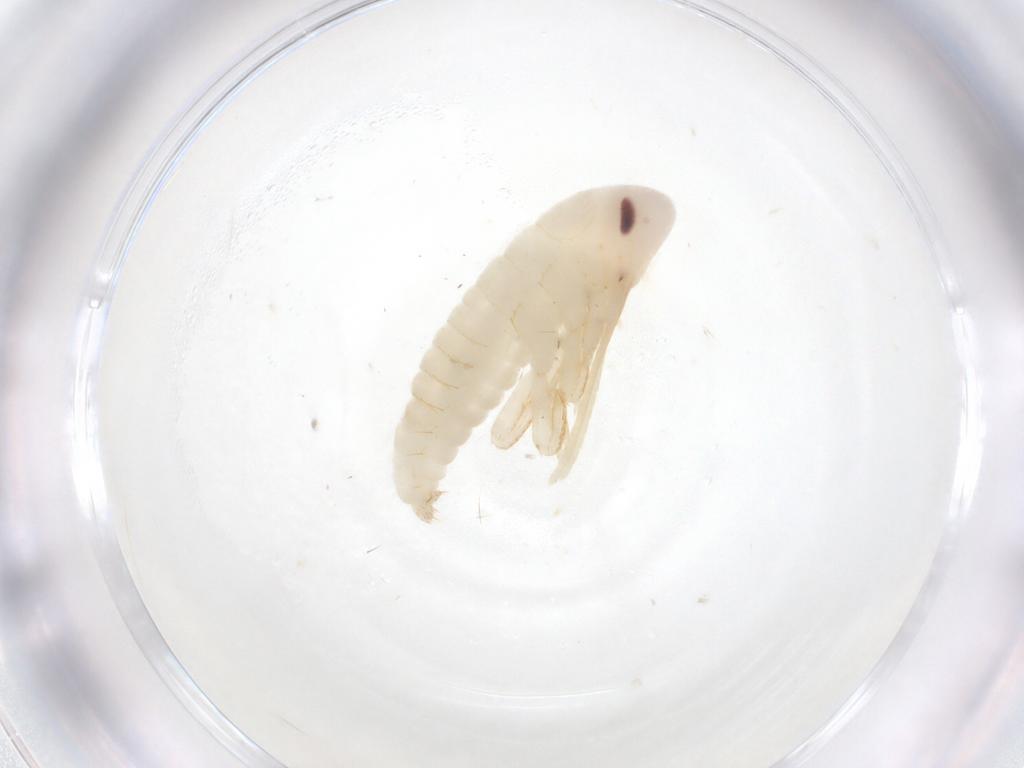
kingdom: Animalia
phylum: Arthropoda
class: Insecta
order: Blattodea
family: Ectobiidae
